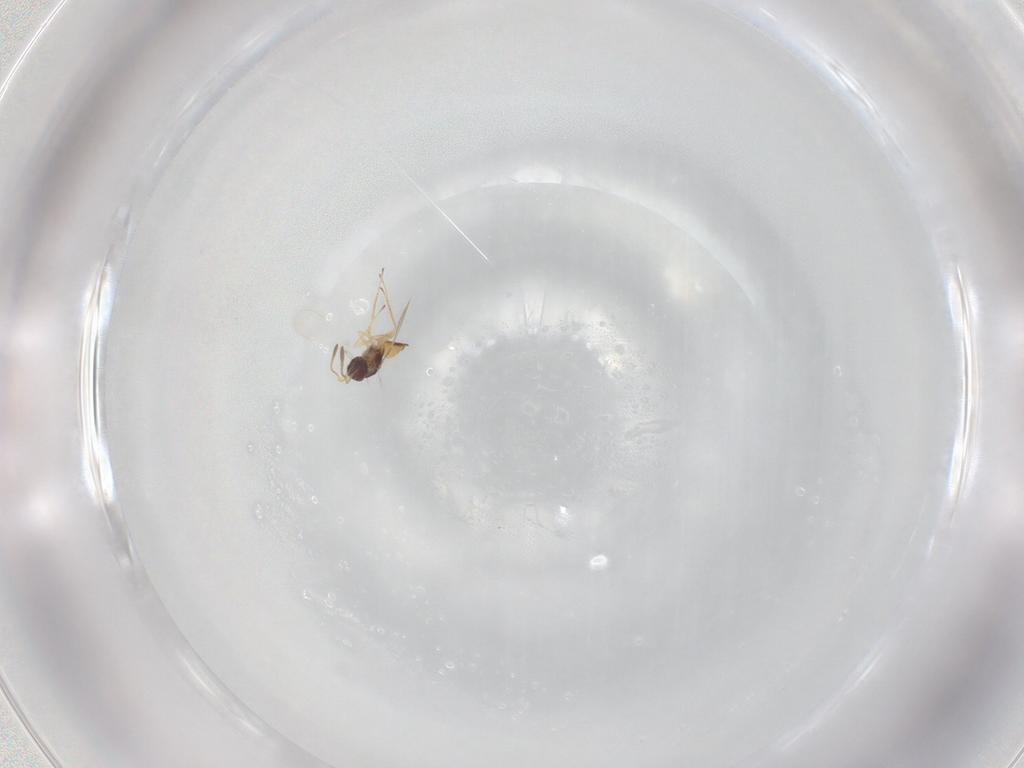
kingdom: Animalia
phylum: Arthropoda
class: Insecta
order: Hymenoptera
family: Mymaridae
